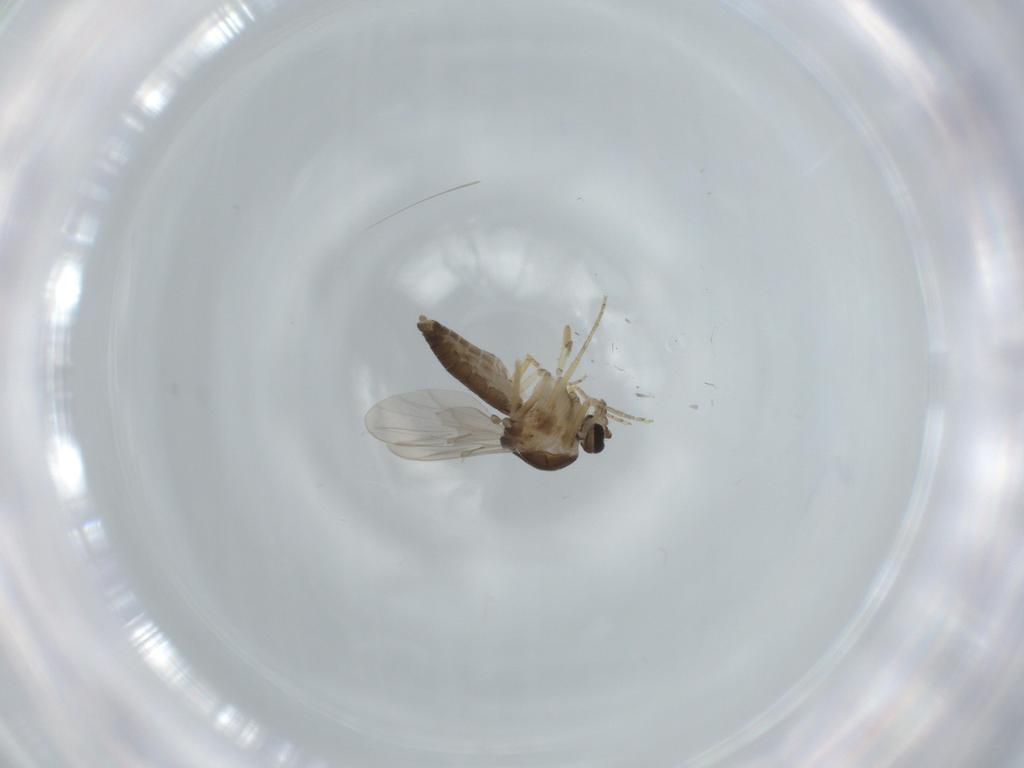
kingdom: Animalia
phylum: Arthropoda
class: Insecta
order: Diptera
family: Ceratopogonidae
